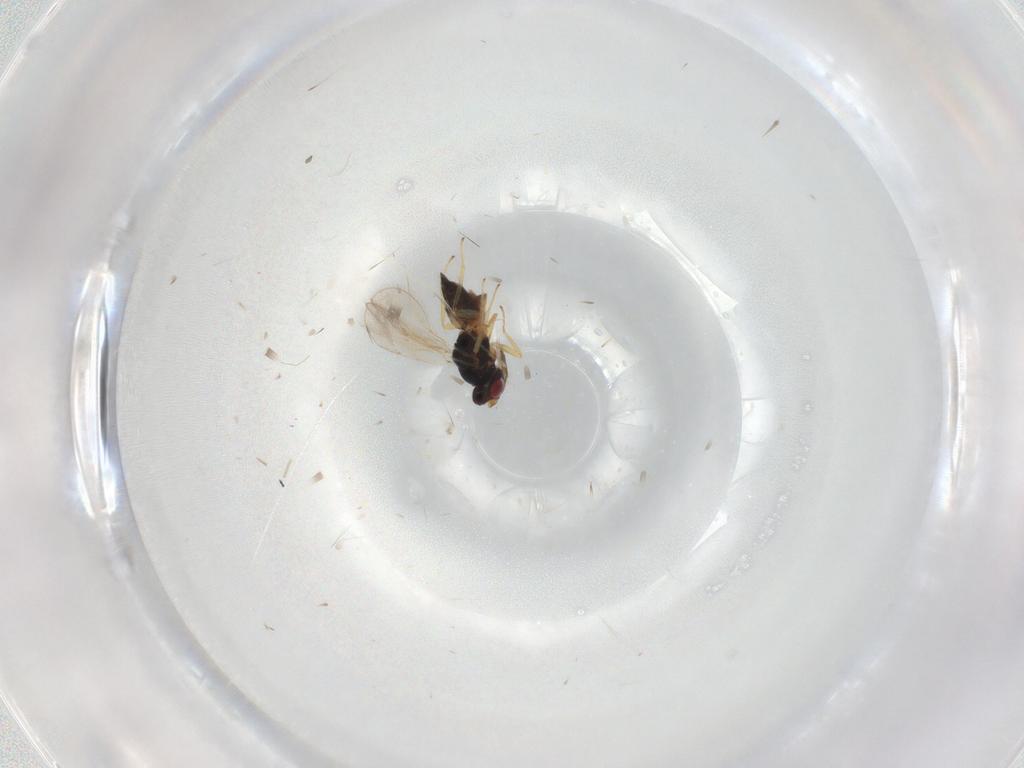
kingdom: Animalia
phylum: Arthropoda
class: Insecta
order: Hymenoptera
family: Eulophidae
